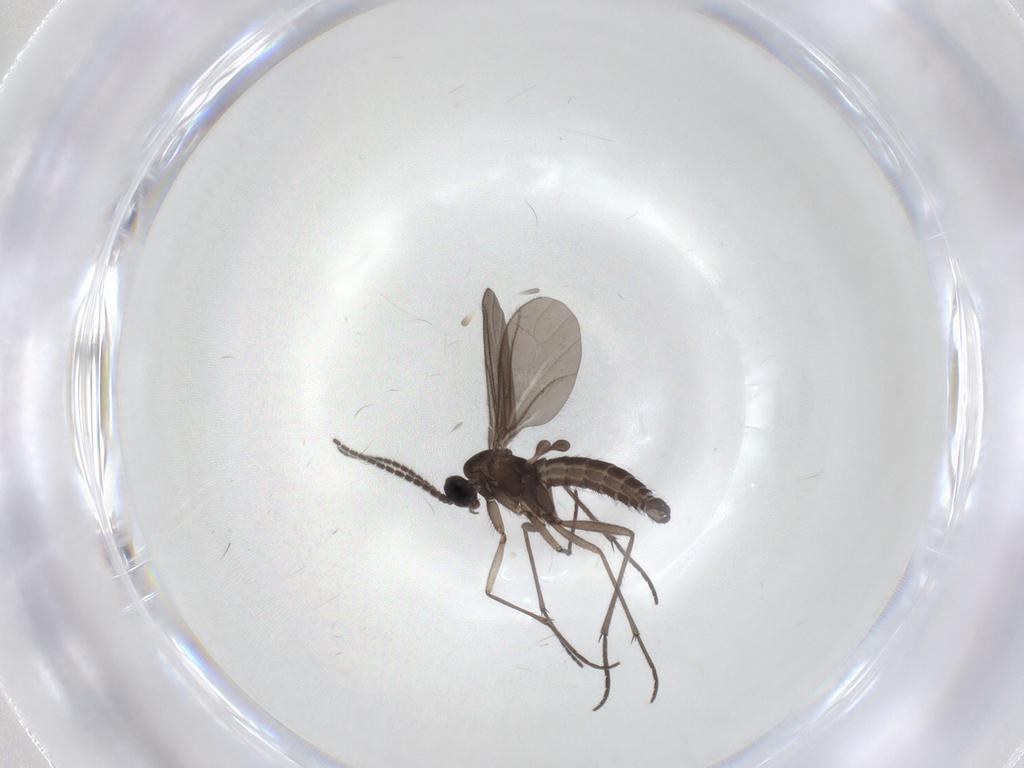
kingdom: Animalia
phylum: Arthropoda
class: Insecta
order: Diptera
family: Sciaridae
